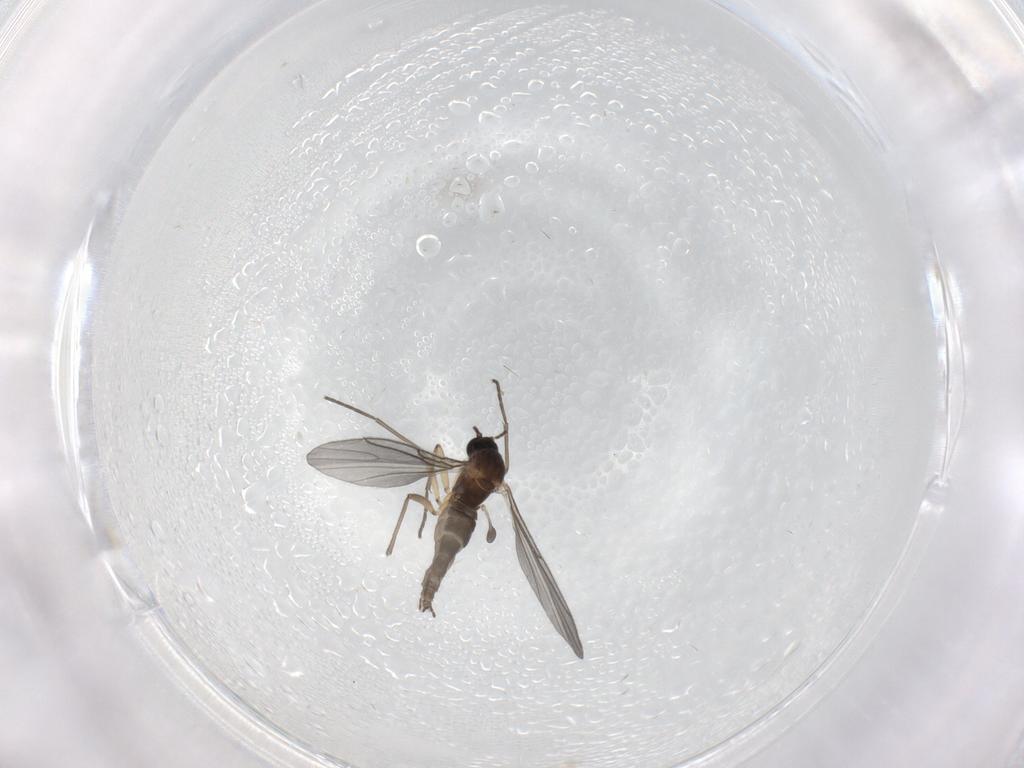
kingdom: Animalia
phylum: Arthropoda
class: Insecta
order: Diptera
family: Sciaridae
